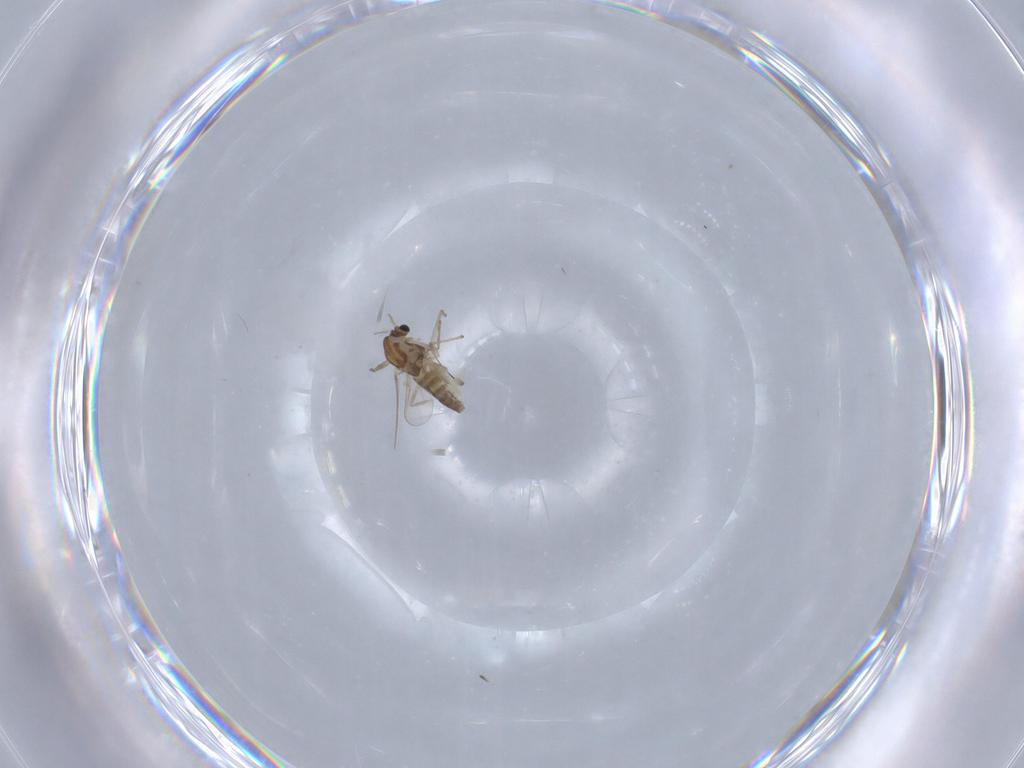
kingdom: Animalia
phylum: Arthropoda
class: Insecta
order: Diptera
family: Chironomidae
